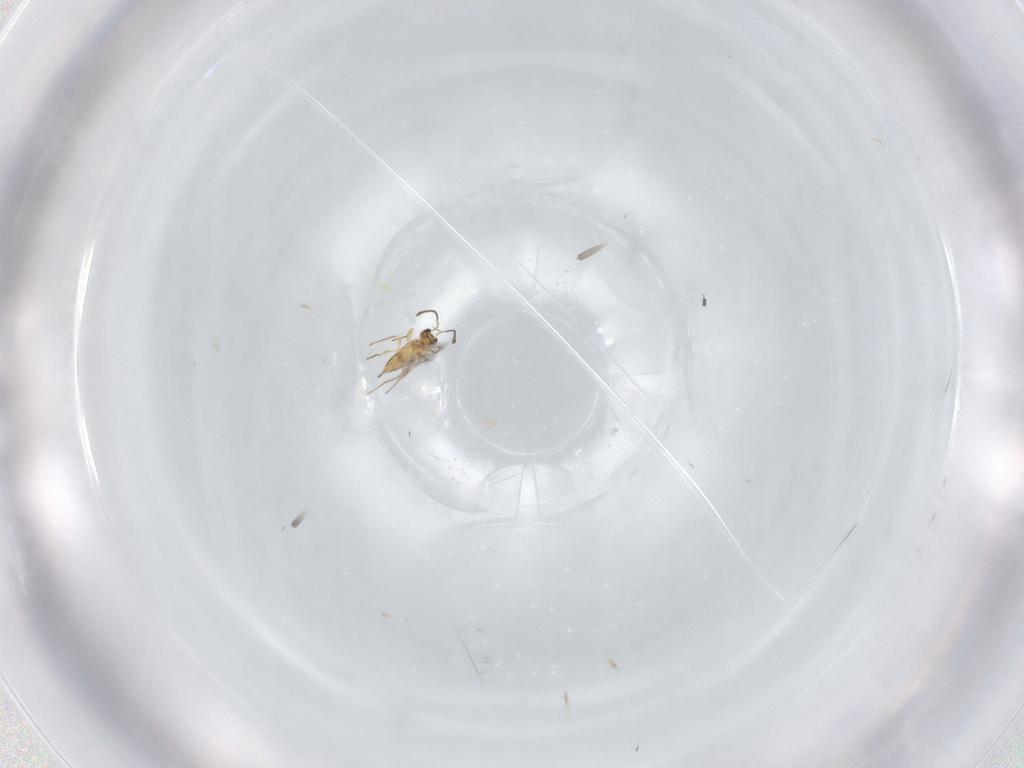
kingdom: Animalia
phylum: Arthropoda
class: Insecta
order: Hymenoptera
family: Mymaridae
